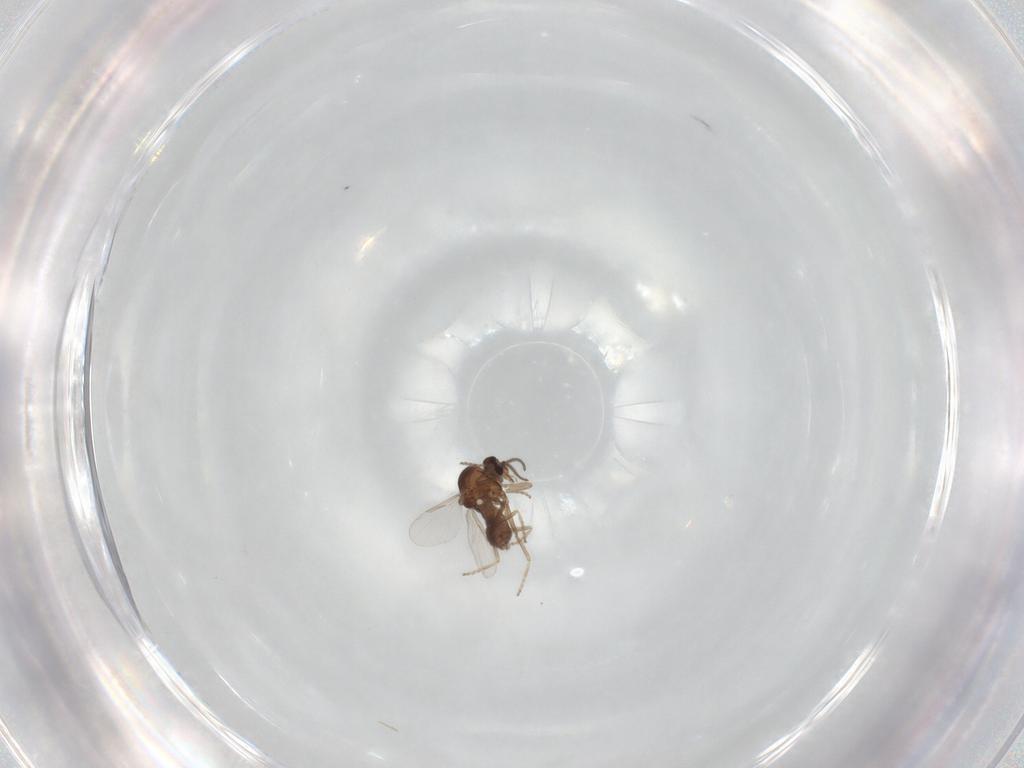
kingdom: Animalia
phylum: Arthropoda
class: Insecta
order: Diptera
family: Ceratopogonidae
